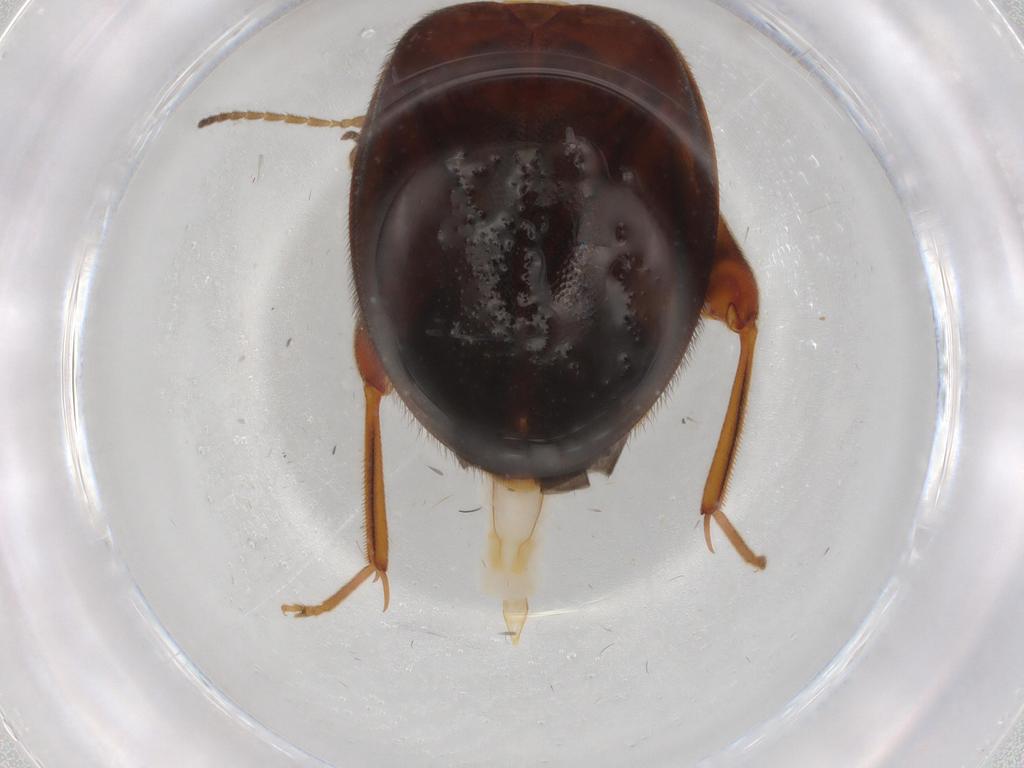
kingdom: Animalia
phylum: Arthropoda
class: Insecta
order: Coleoptera
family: Scirtidae
